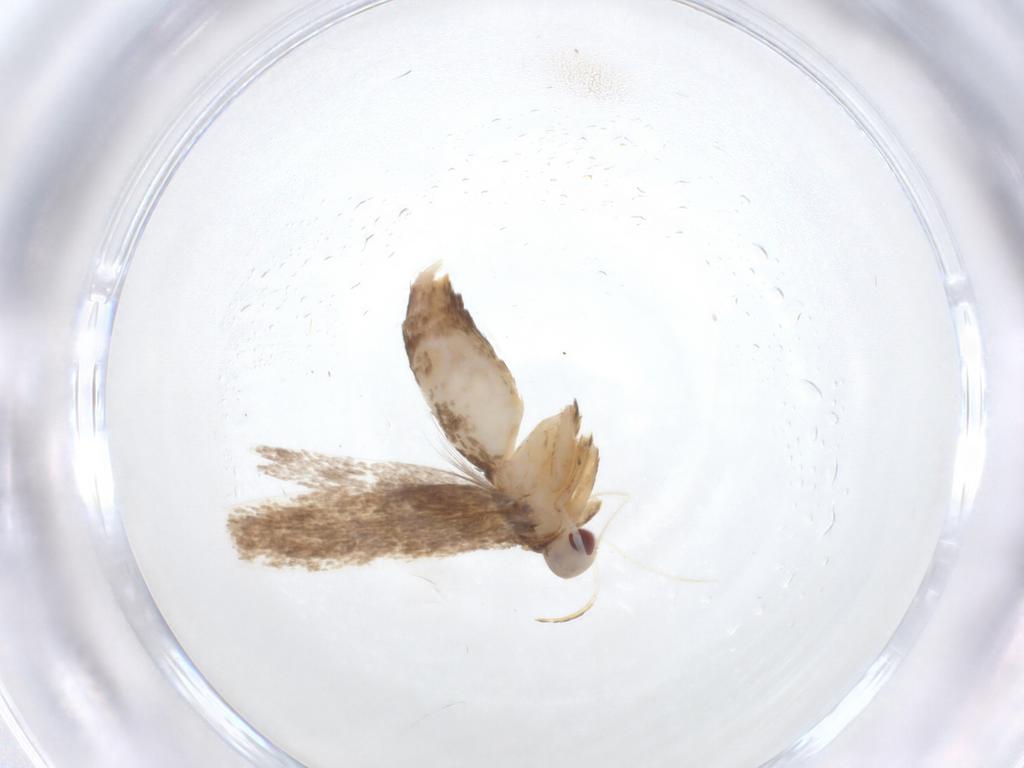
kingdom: Animalia
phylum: Arthropoda
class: Insecta
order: Lepidoptera
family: Cosmopterigidae
